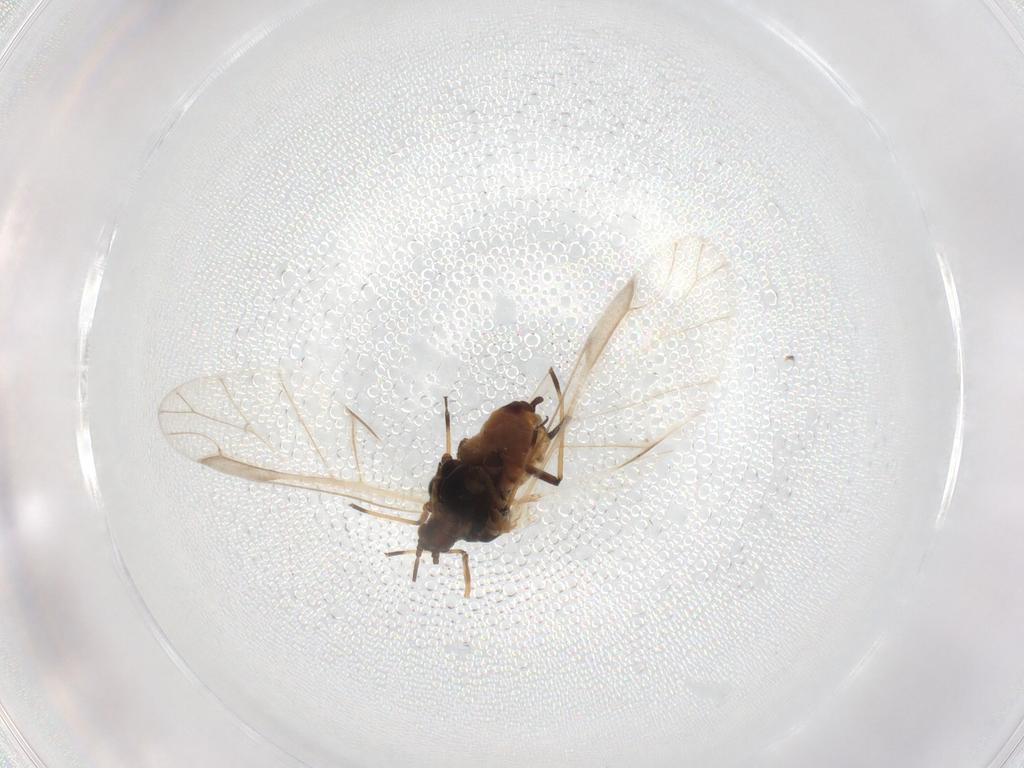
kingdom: Animalia
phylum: Arthropoda
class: Insecta
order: Hemiptera
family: Aphididae
